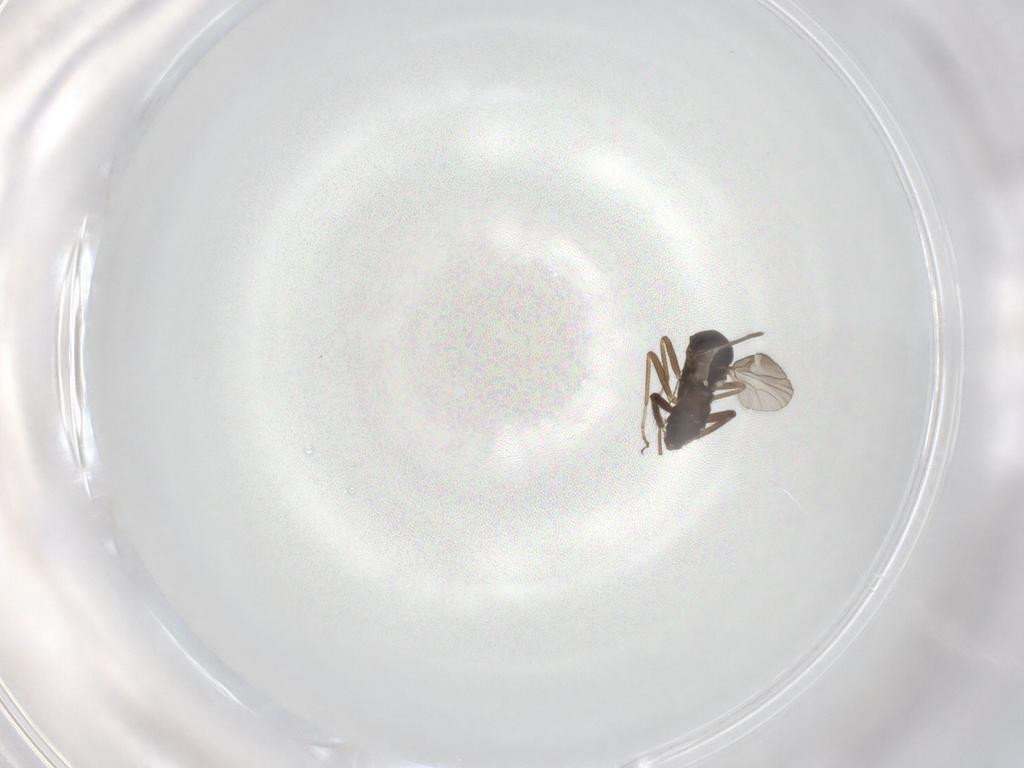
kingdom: Animalia
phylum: Arthropoda
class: Insecta
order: Diptera
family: Ceratopogonidae
